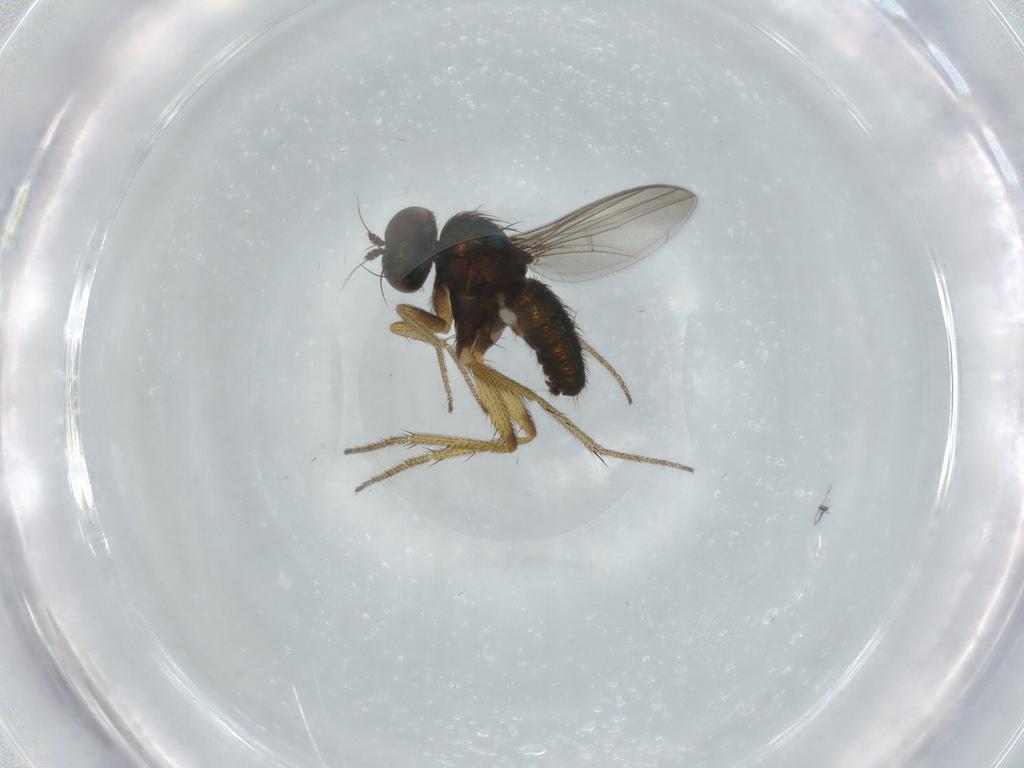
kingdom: Animalia
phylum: Arthropoda
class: Insecta
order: Diptera
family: Dolichopodidae
